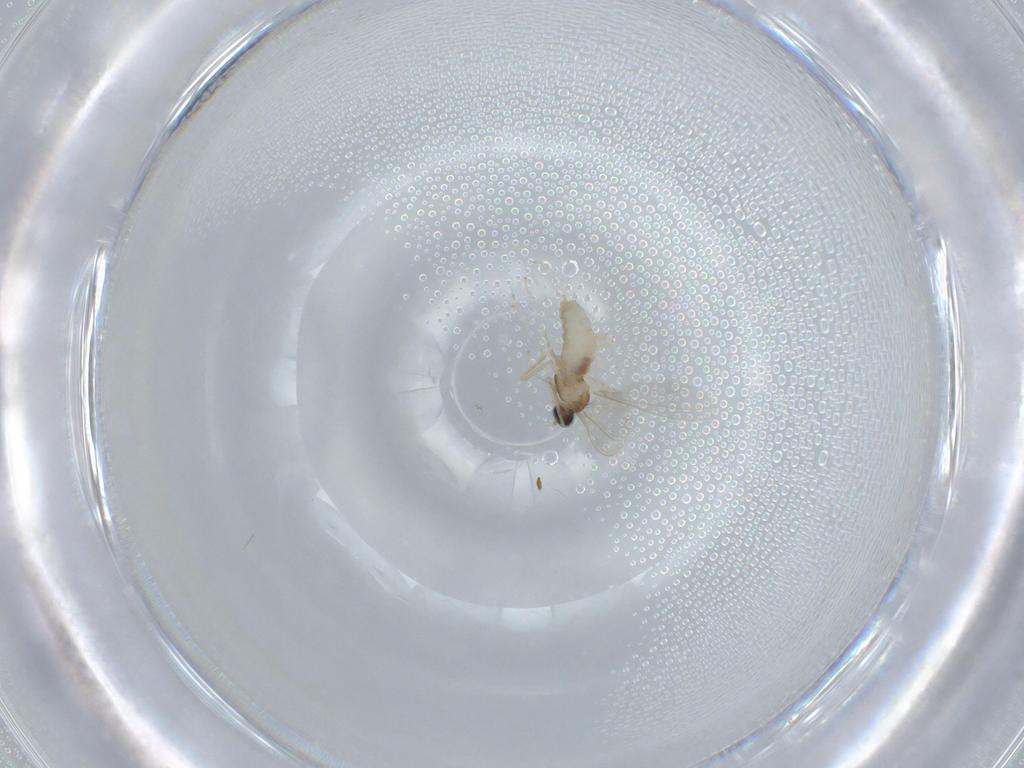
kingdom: Animalia
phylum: Arthropoda
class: Insecta
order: Diptera
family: Cecidomyiidae
